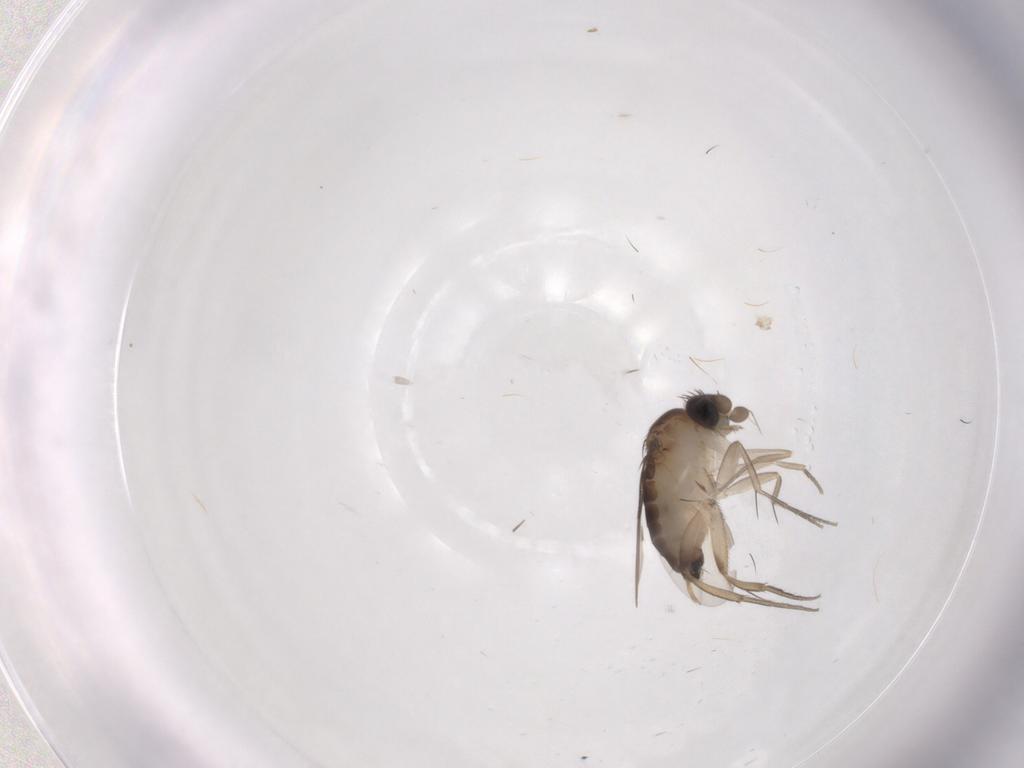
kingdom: Animalia
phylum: Arthropoda
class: Insecta
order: Diptera
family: Phoridae
